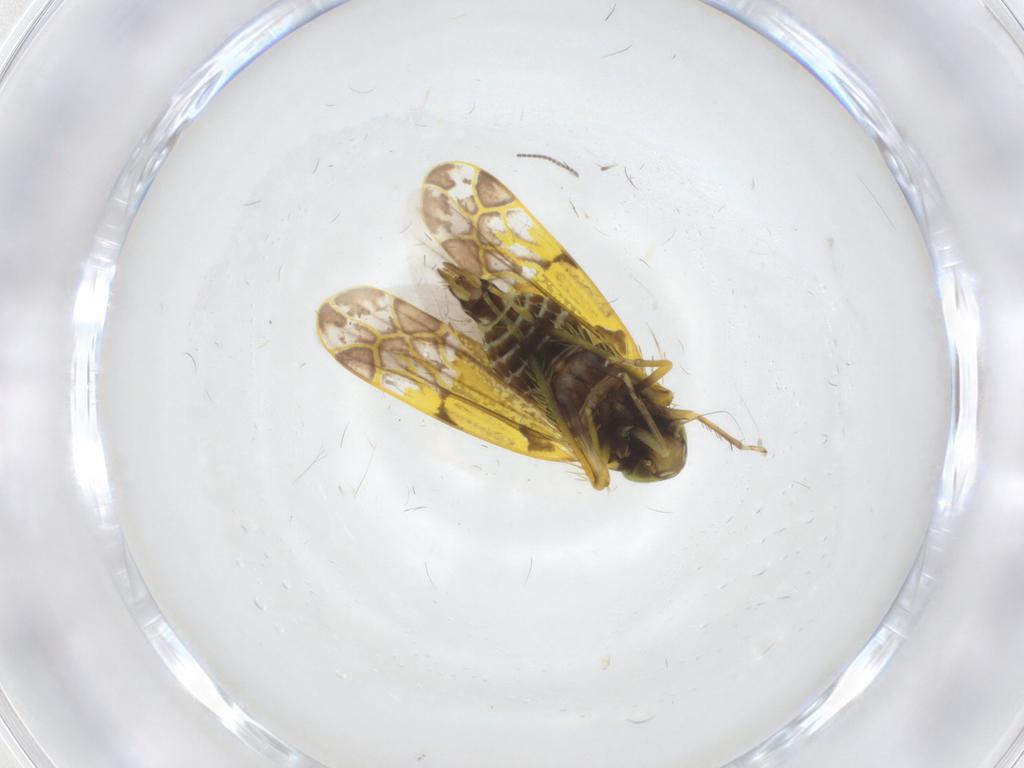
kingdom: Animalia
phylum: Arthropoda
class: Insecta
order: Hemiptera
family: Cicadellidae
